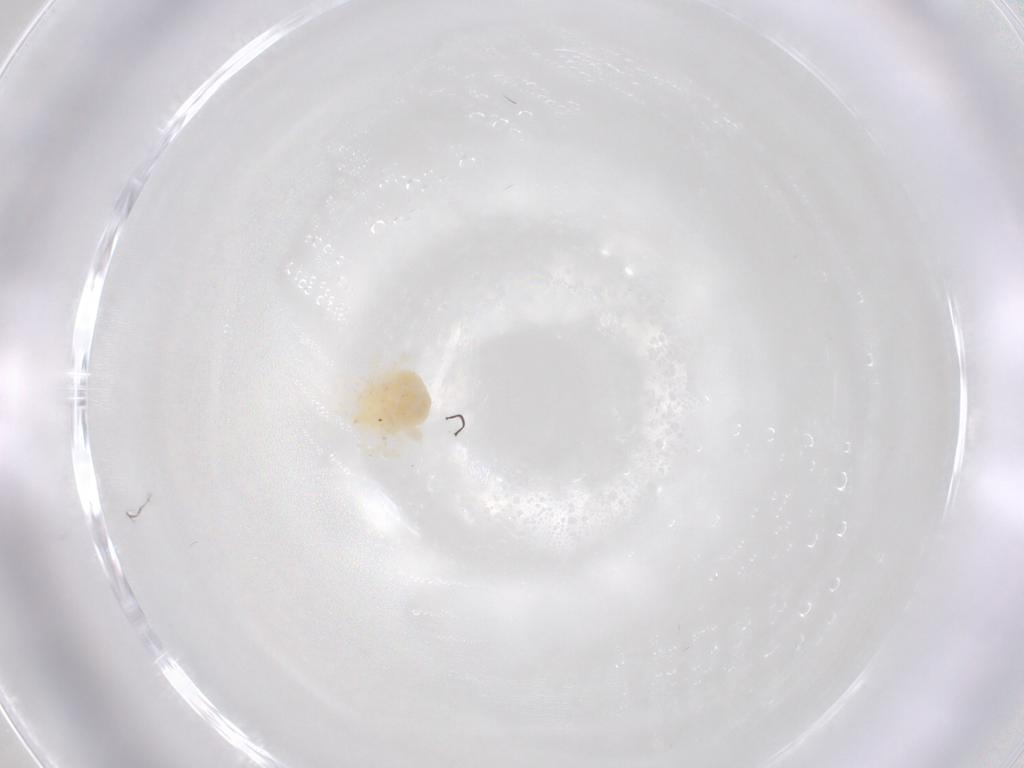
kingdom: Animalia
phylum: Arthropoda
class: Arachnida
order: Trombidiformes
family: Anystidae
